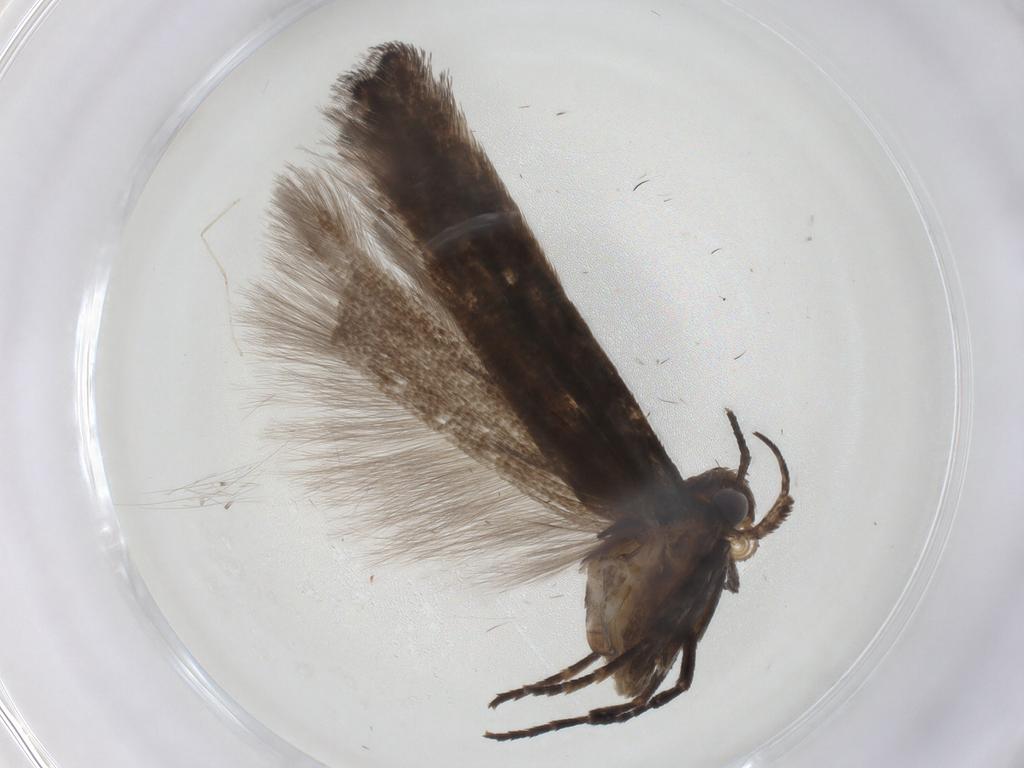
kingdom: Animalia
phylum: Arthropoda
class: Insecta
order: Lepidoptera
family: Gelechiidae
